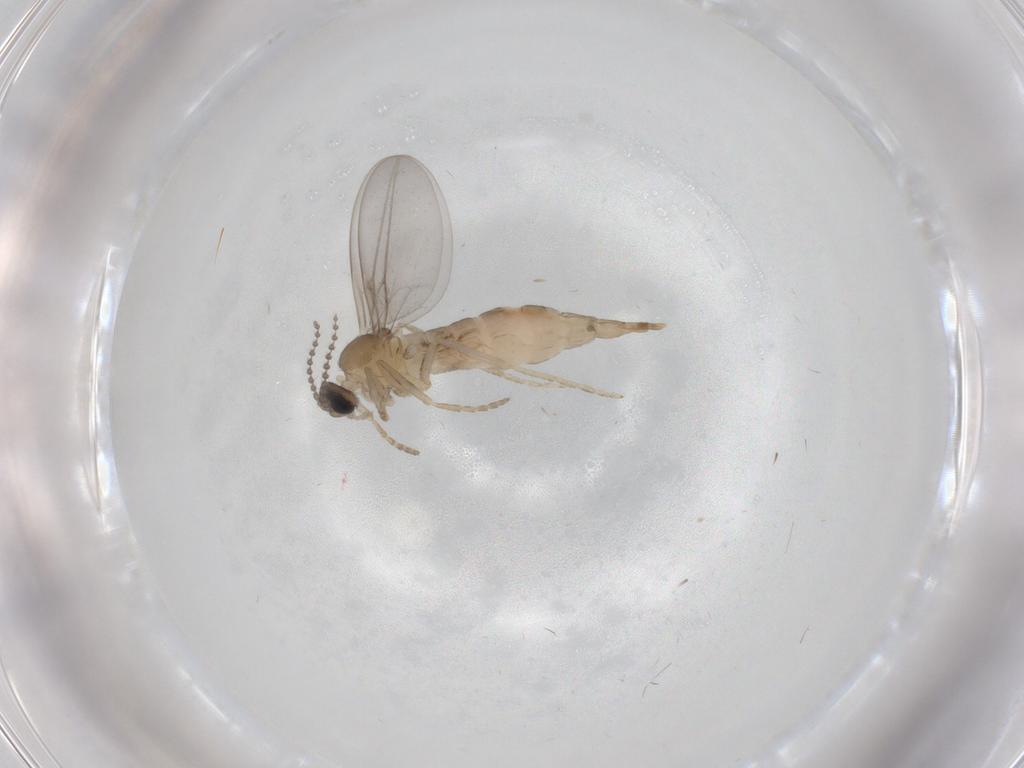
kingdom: Animalia
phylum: Arthropoda
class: Insecta
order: Diptera
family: Cecidomyiidae
